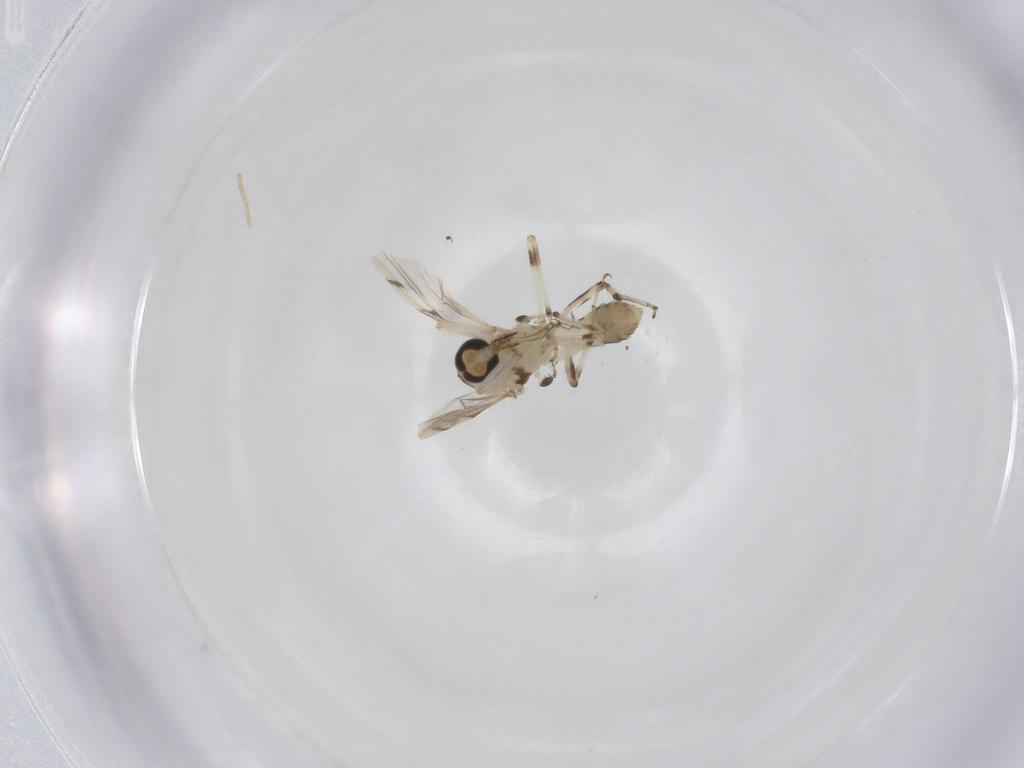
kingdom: Animalia
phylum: Arthropoda
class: Insecta
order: Diptera
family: Ceratopogonidae
